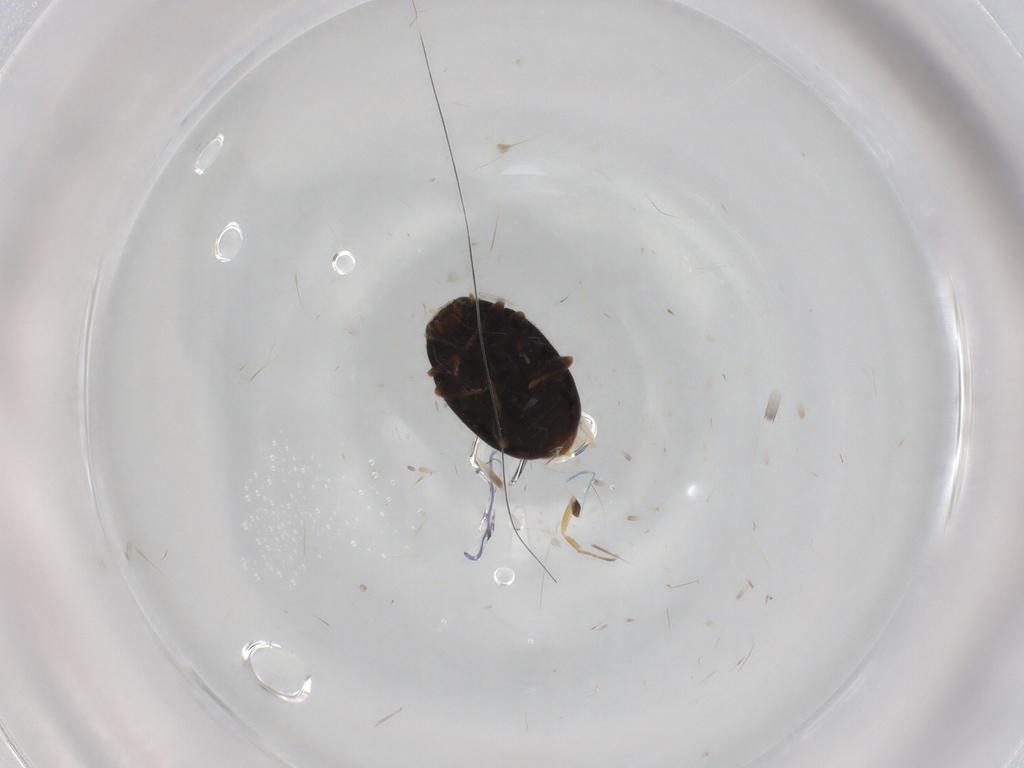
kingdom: Animalia
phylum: Arthropoda
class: Insecta
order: Coleoptera
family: Coccinellidae
